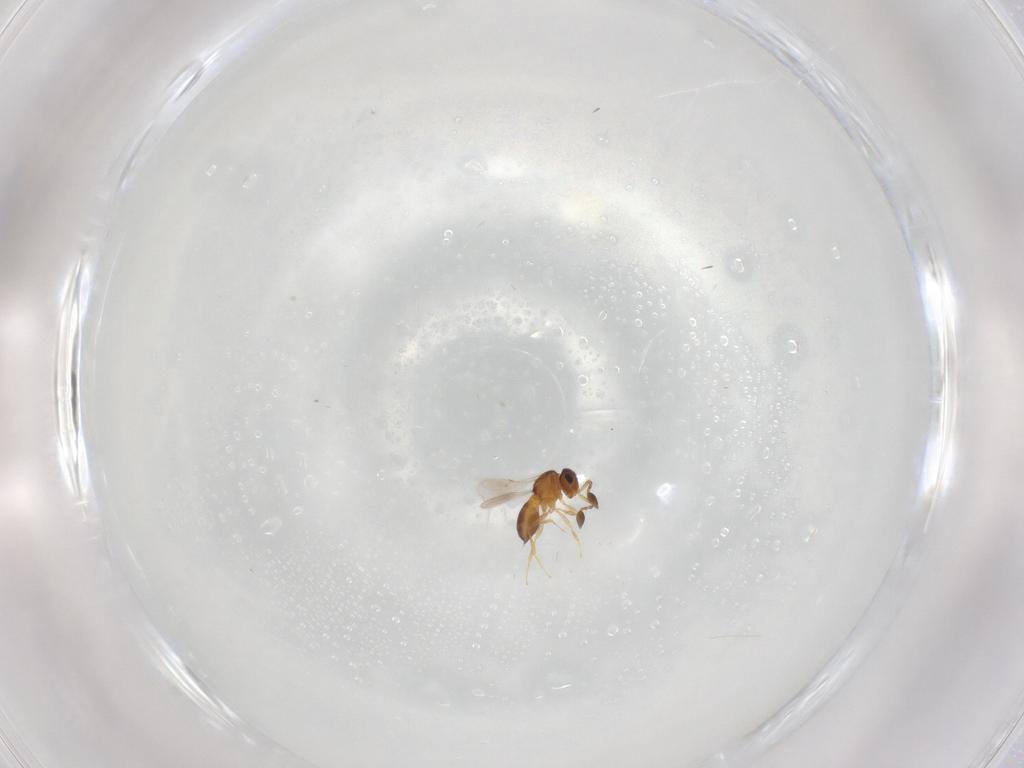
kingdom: Animalia
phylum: Arthropoda
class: Insecta
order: Hymenoptera
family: Scelionidae
